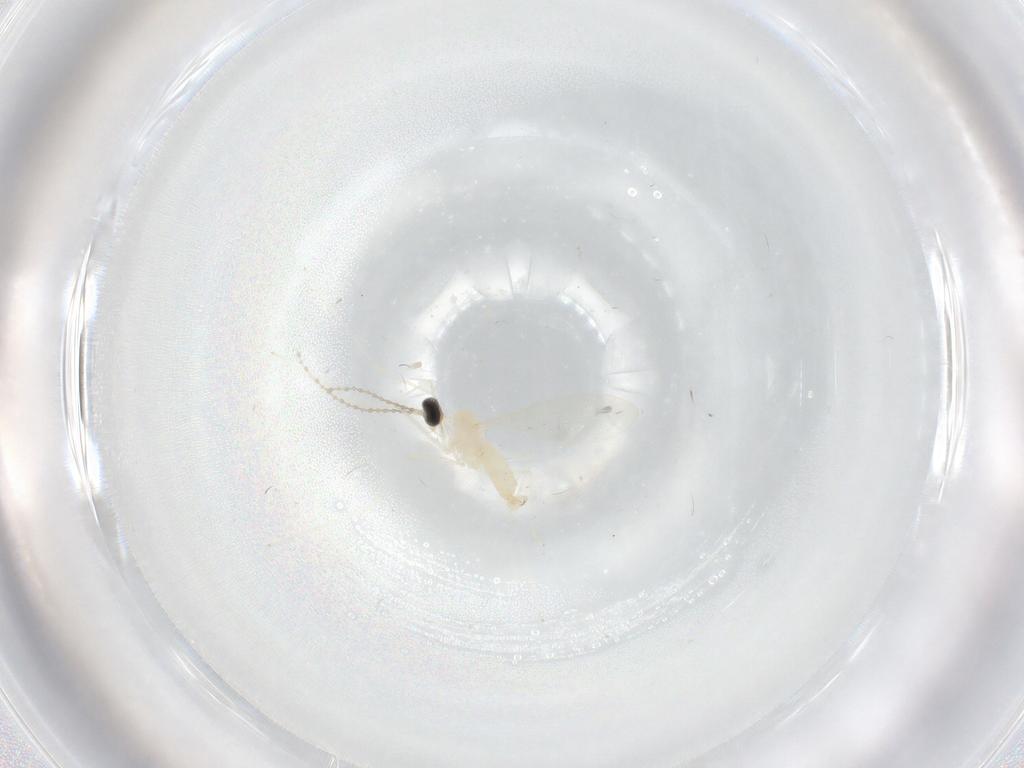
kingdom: Animalia
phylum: Arthropoda
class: Insecta
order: Diptera
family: Cecidomyiidae
